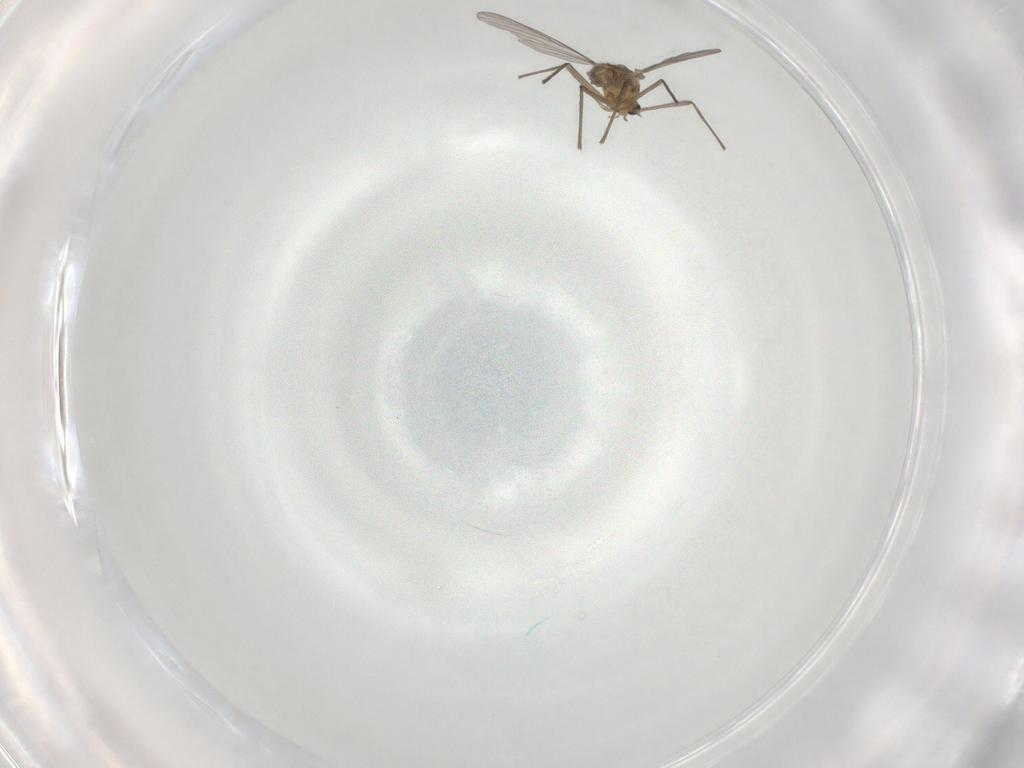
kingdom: Animalia
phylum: Arthropoda
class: Insecta
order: Diptera
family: Chironomidae
